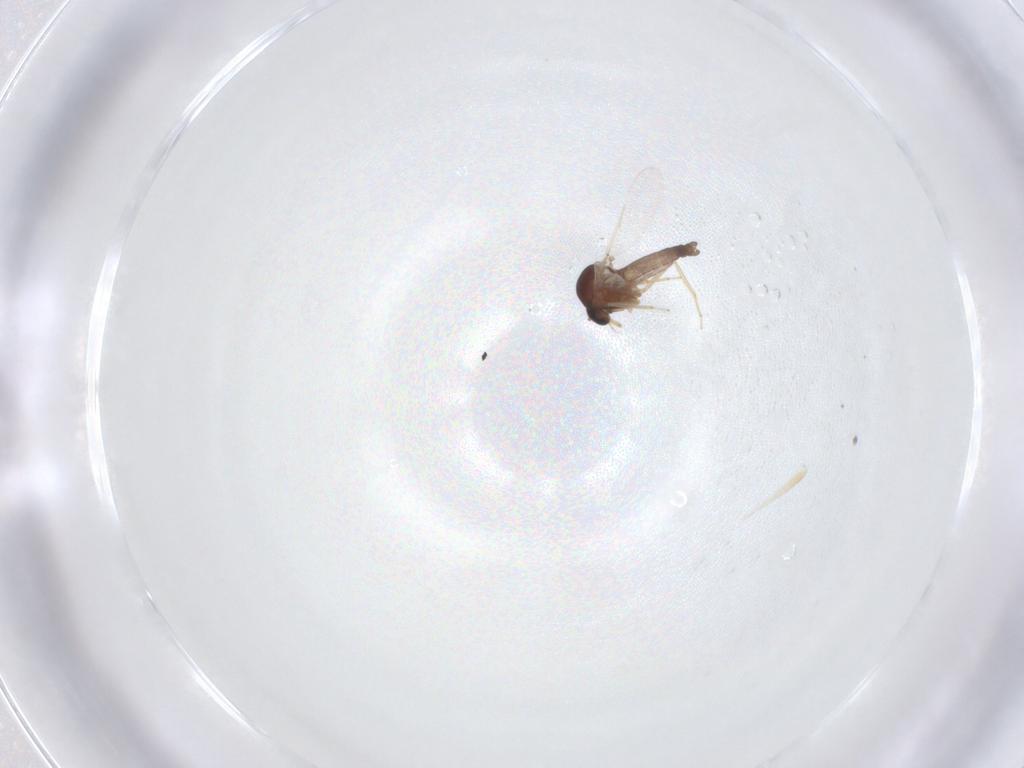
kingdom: Animalia
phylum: Arthropoda
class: Insecta
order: Diptera
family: Ceratopogonidae
